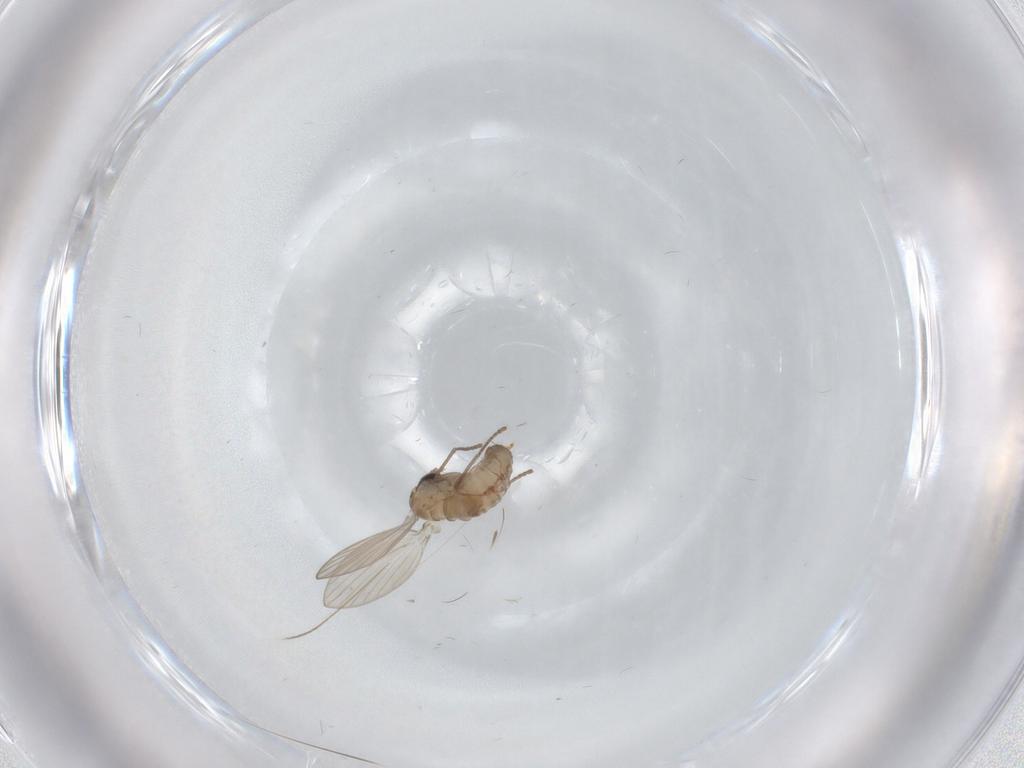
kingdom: Animalia
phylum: Arthropoda
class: Insecta
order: Diptera
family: Psychodidae
